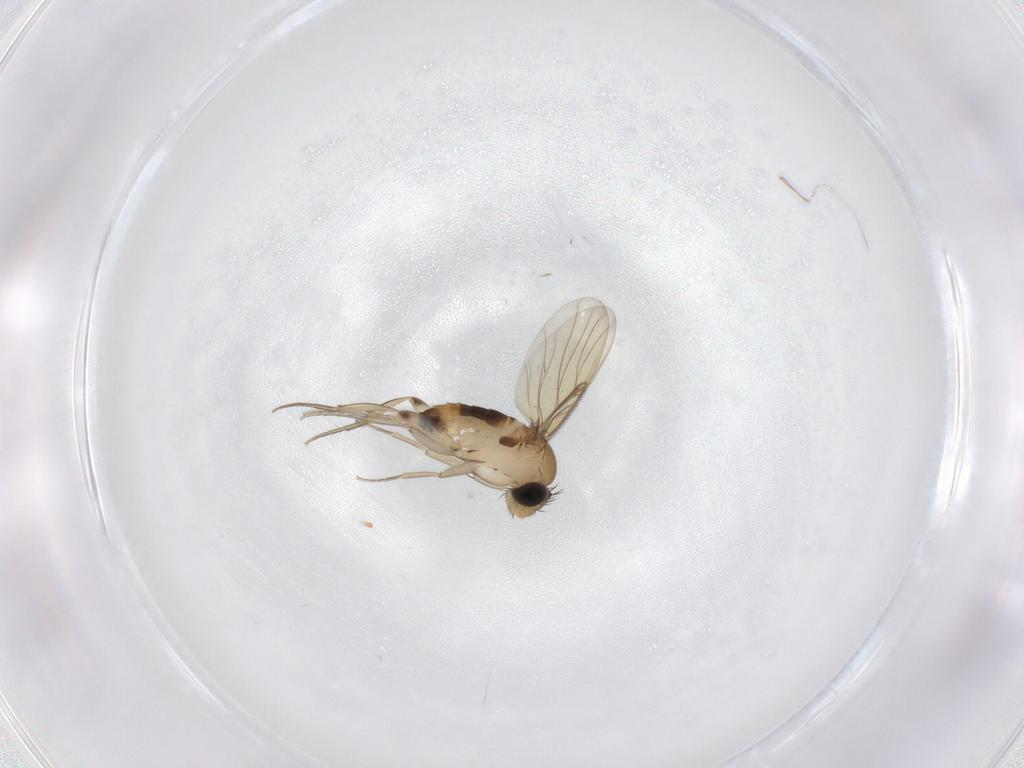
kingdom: Animalia
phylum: Arthropoda
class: Insecta
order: Diptera
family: Phoridae
